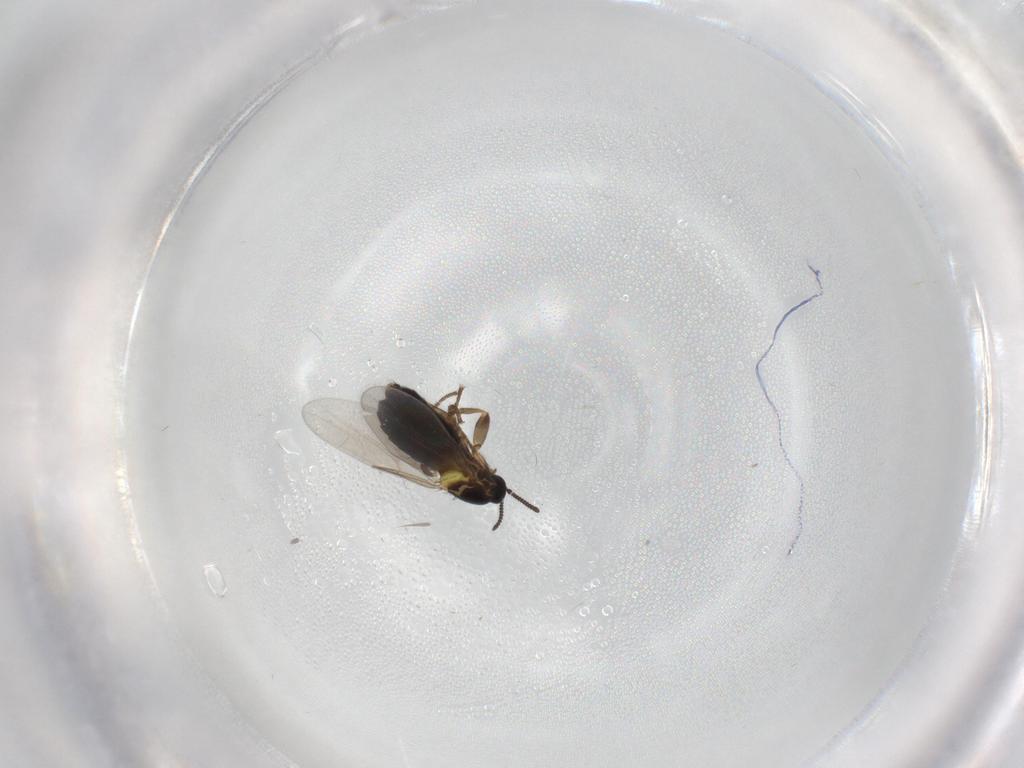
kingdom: Animalia
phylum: Arthropoda
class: Insecta
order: Diptera
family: Scatopsidae
